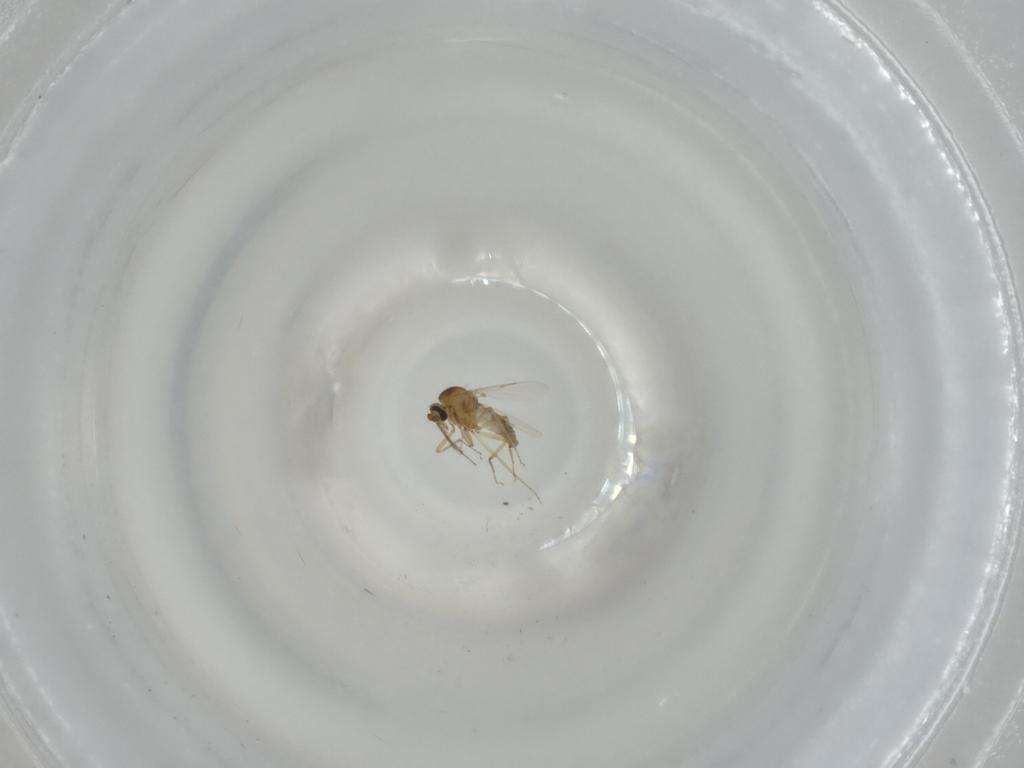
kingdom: Animalia
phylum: Arthropoda
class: Insecta
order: Diptera
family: Ceratopogonidae
